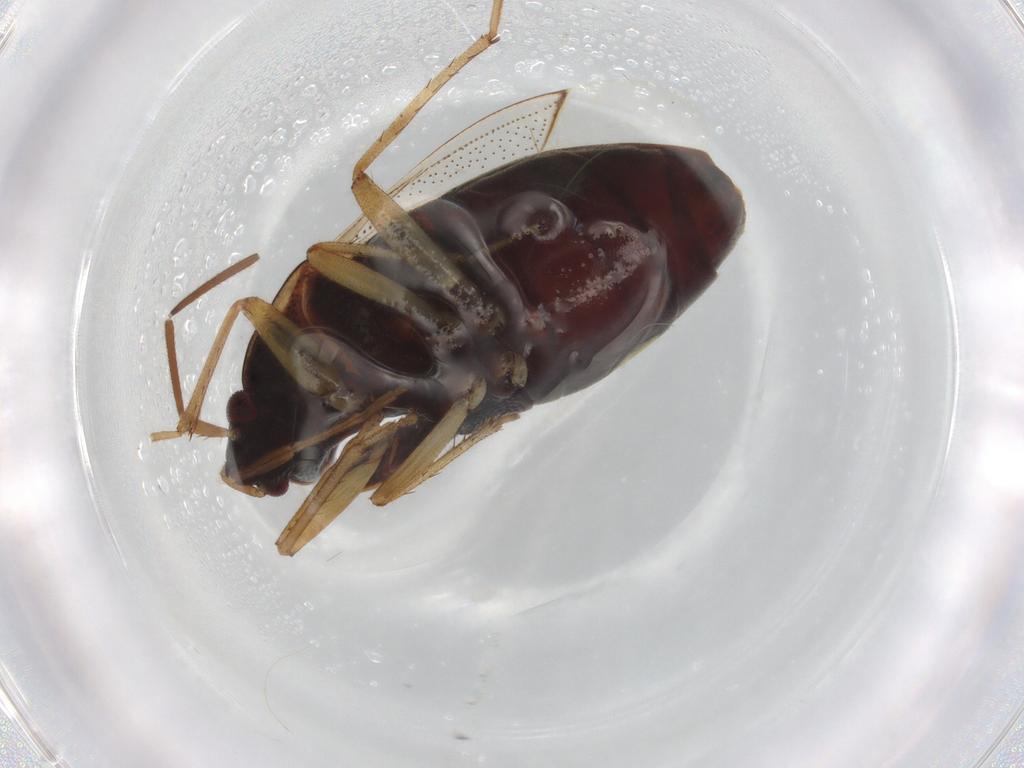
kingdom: Animalia
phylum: Arthropoda
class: Insecta
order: Hemiptera
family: Rhyparochromidae
